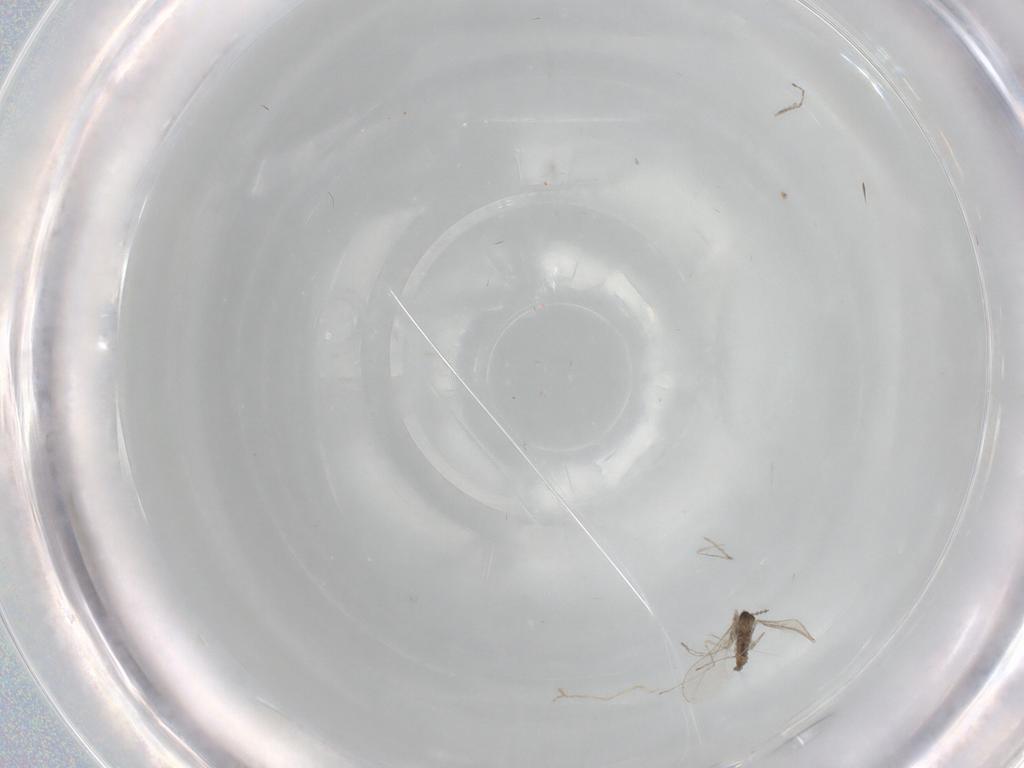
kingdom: Animalia
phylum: Arthropoda
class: Insecta
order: Diptera
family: Cecidomyiidae
